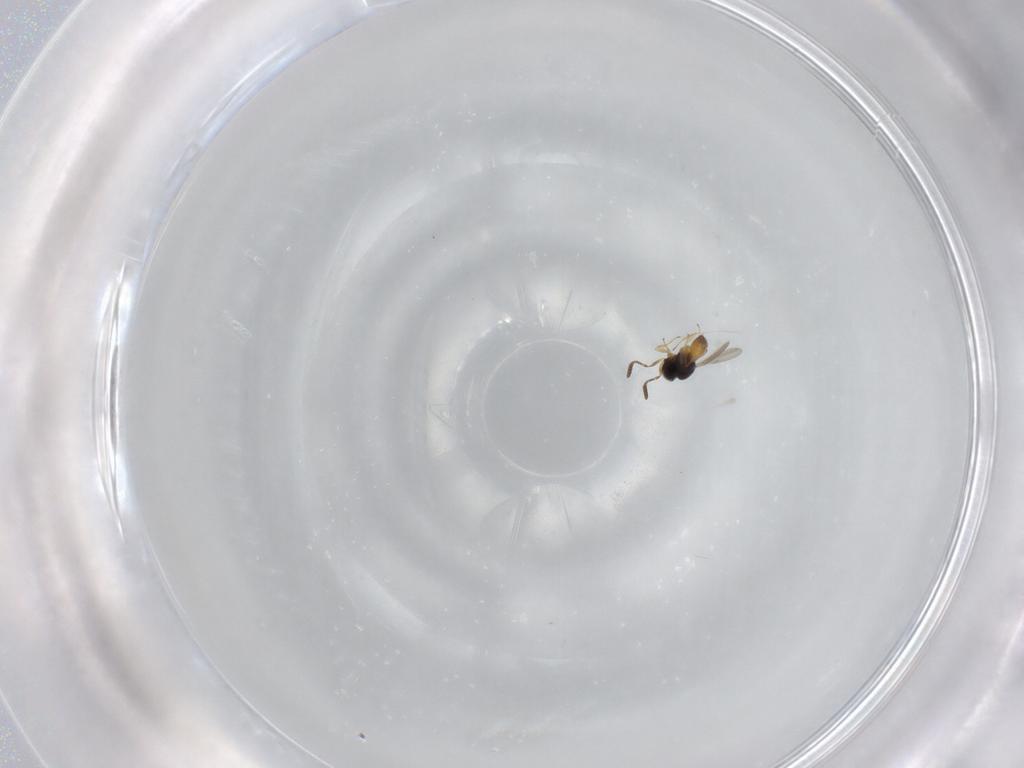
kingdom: Animalia
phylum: Arthropoda
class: Insecta
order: Hymenoptera
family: Scelionidae
